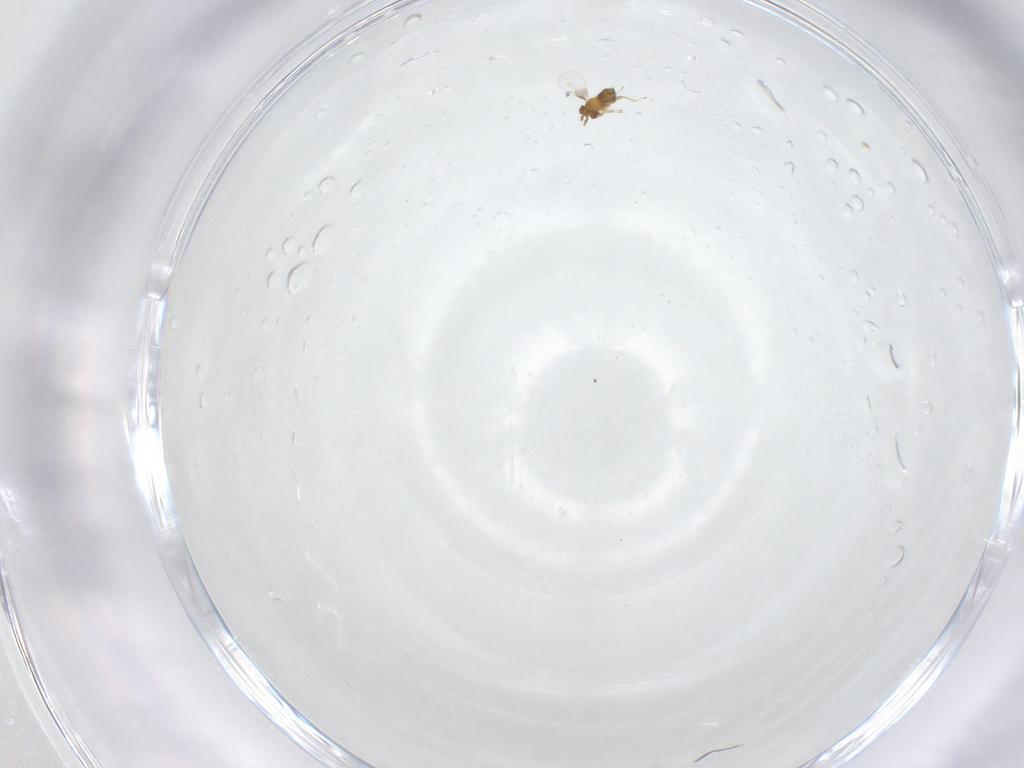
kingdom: Animalia
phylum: Arthropoda
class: Insecta
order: Hymenoptera
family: Trichogrammatidae
